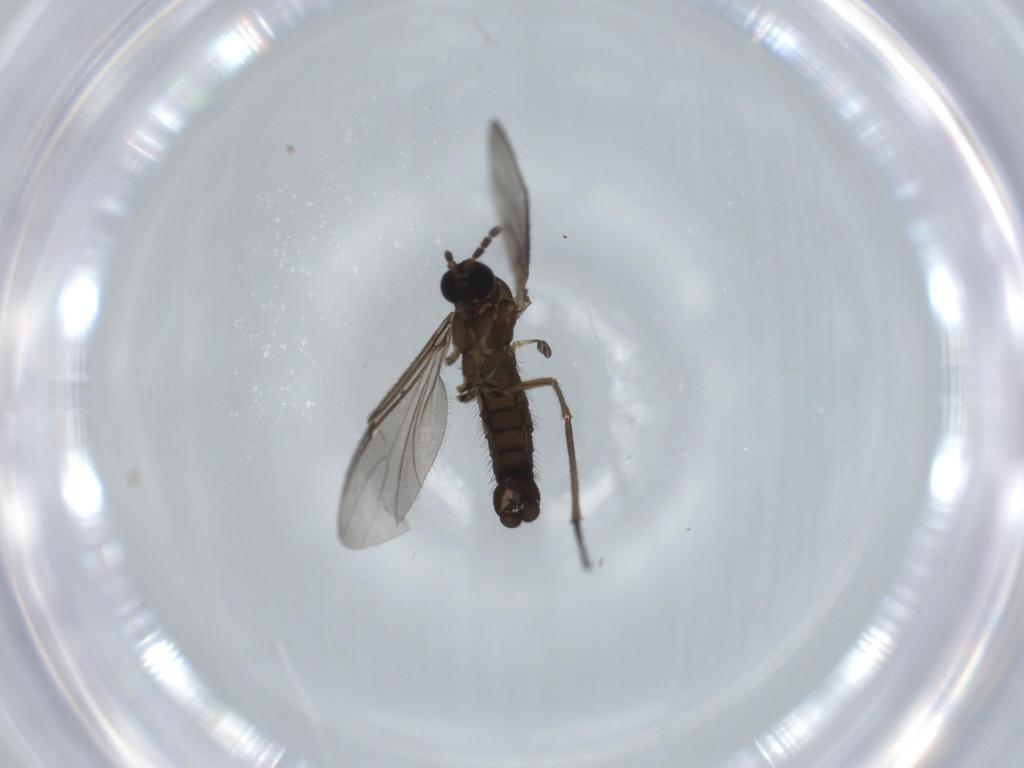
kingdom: Animalia
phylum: Arthropoda
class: Insecta
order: Diptera
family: Sciaridae
